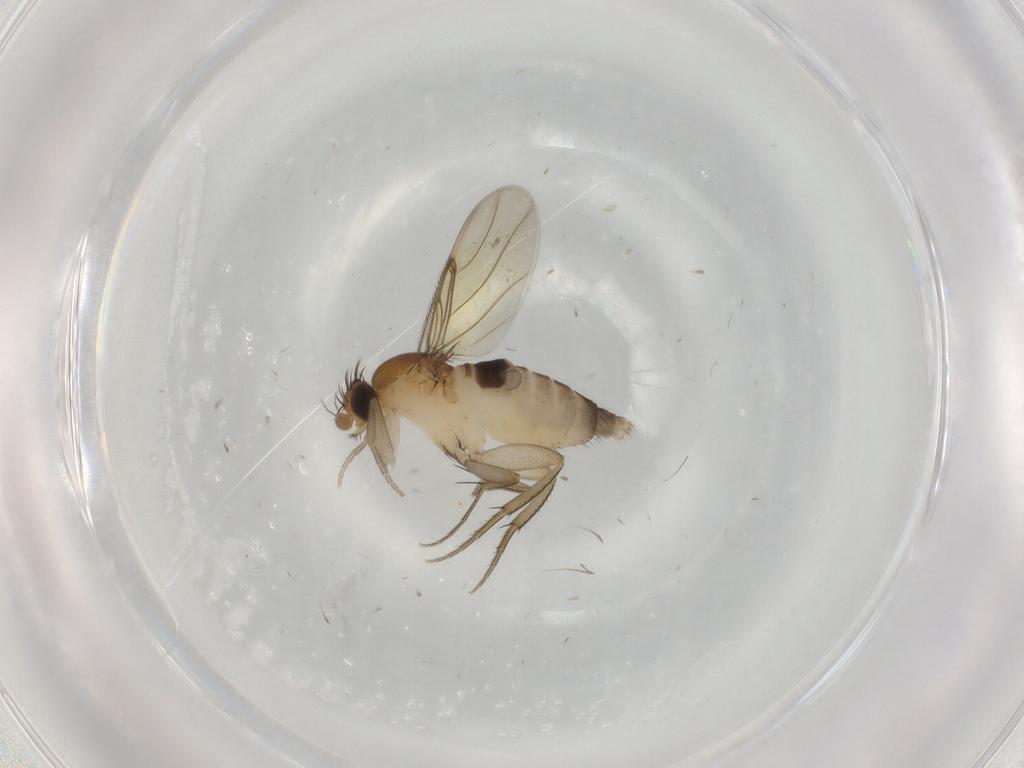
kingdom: Animalia
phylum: Arthropoda
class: Insecta
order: Diptera
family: Phoridae
